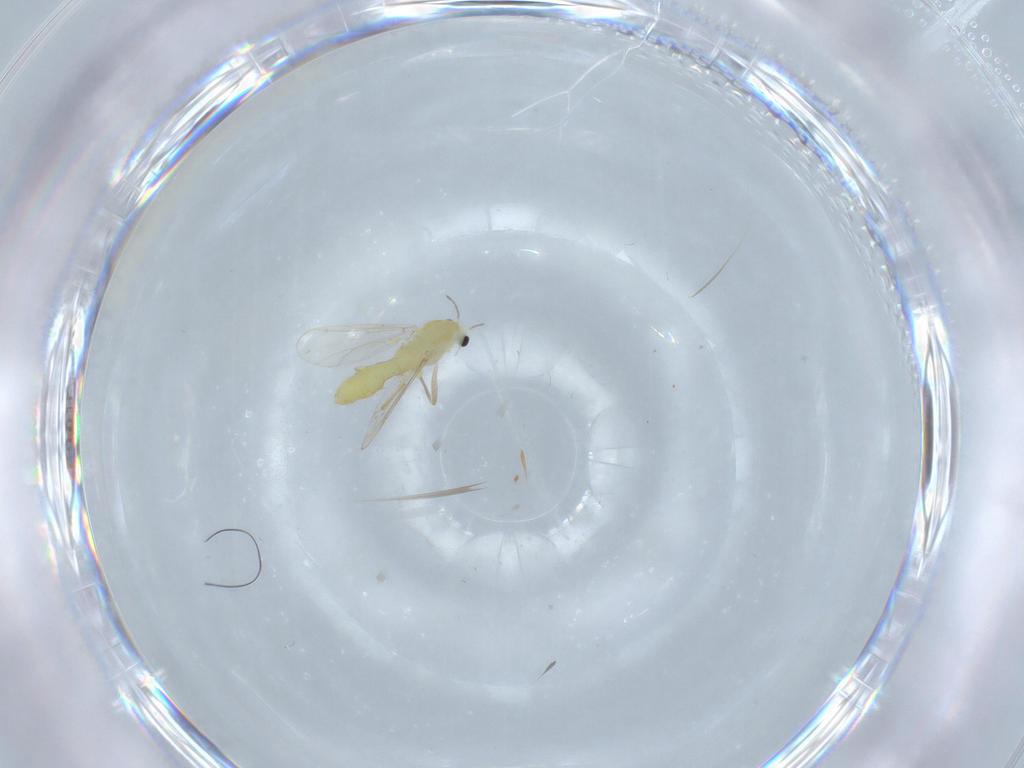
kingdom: Animalia
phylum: Arthropoda
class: Insecta
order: Diptera
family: Chironomidae
